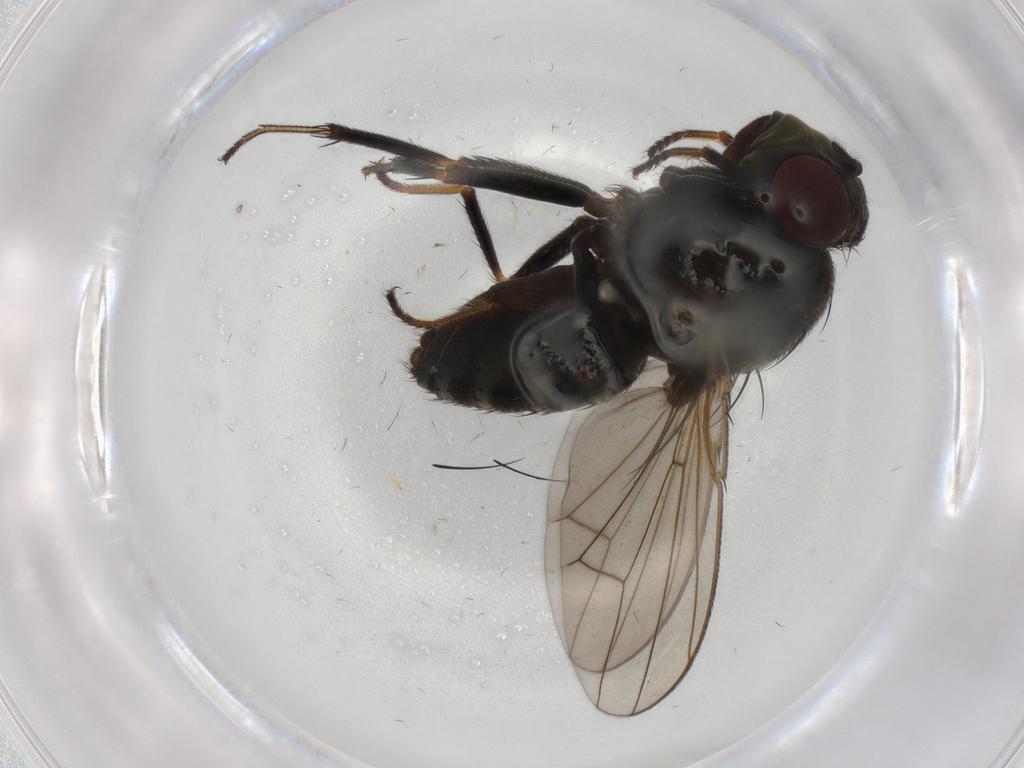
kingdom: Animalia
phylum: Arthropoda
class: Insecta
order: Diptera
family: Ephydridae
